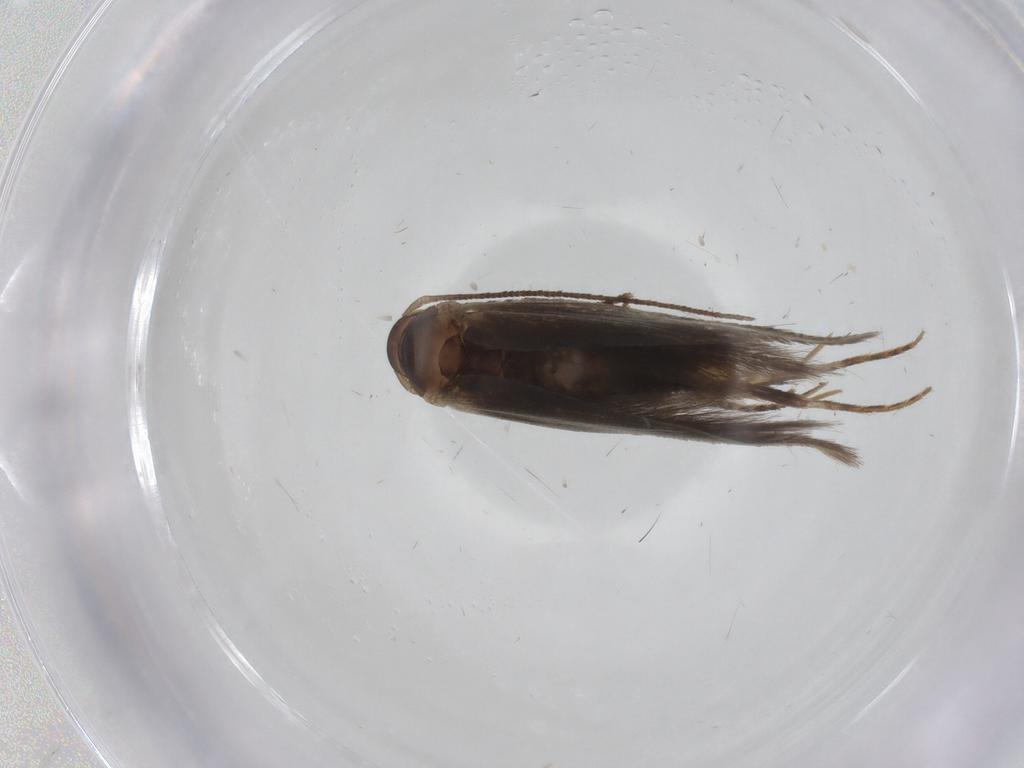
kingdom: Animalia
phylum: Arthropoda
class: Insecta
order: Lepidoptera
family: Elachistidae
